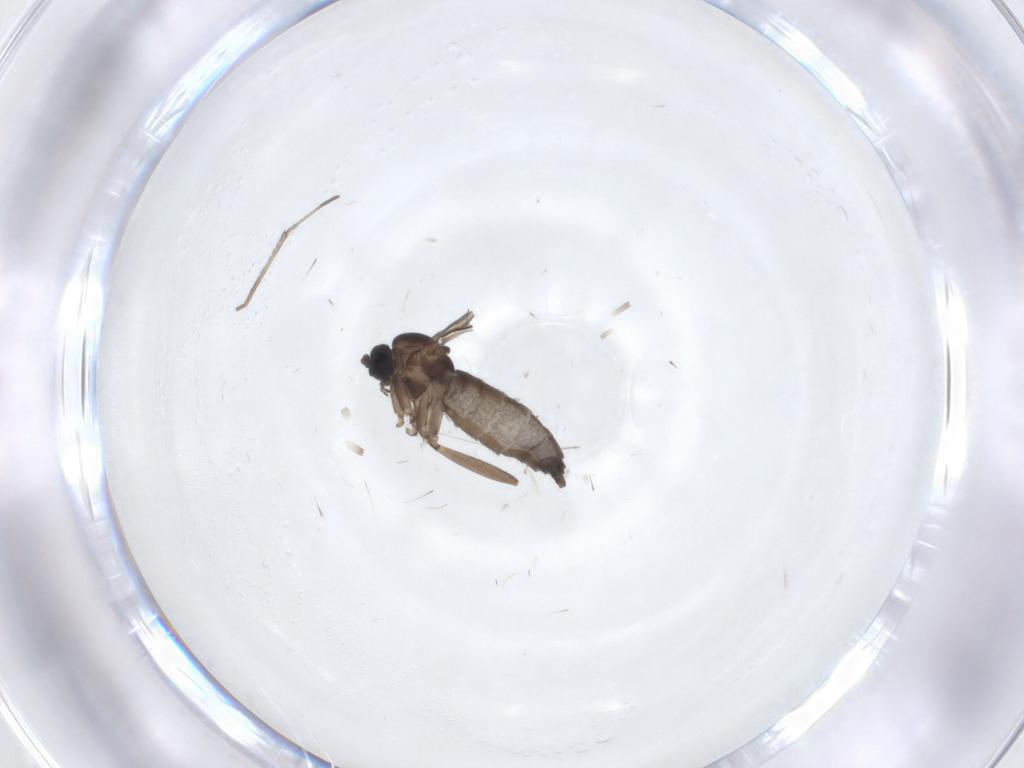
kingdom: Animalia
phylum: Arthropoda
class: Insecta
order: Diptera
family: Sciaridae
